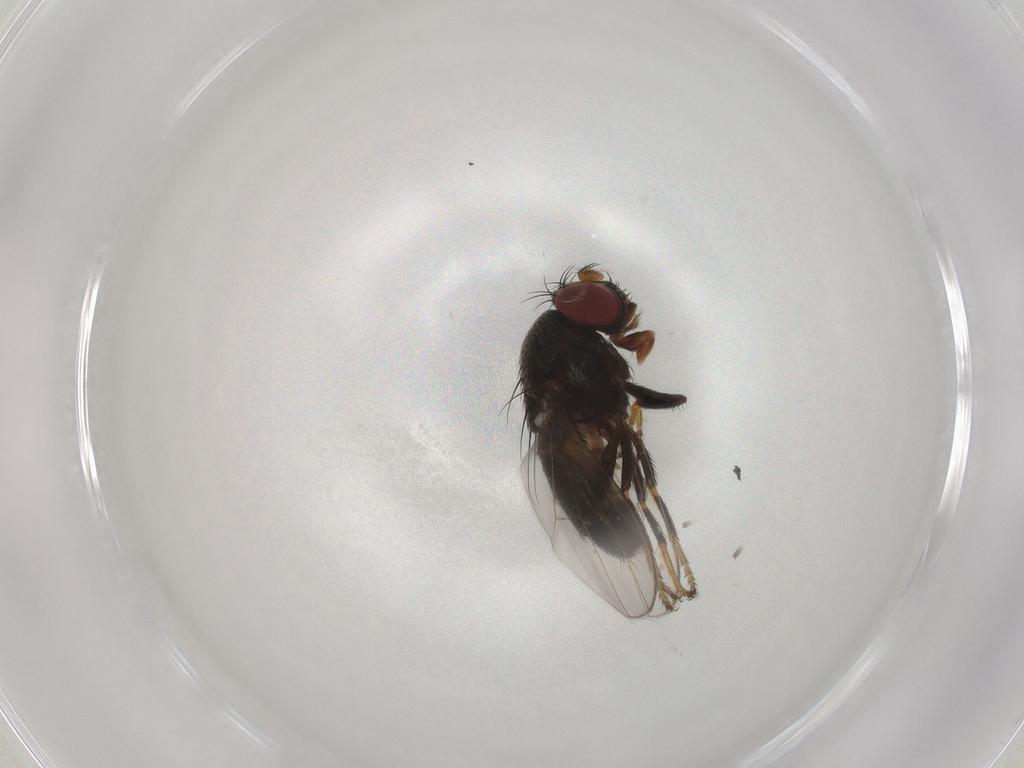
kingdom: Animalia
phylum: Arthropoda
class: Insecta
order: Diptera
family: Ephydridae
